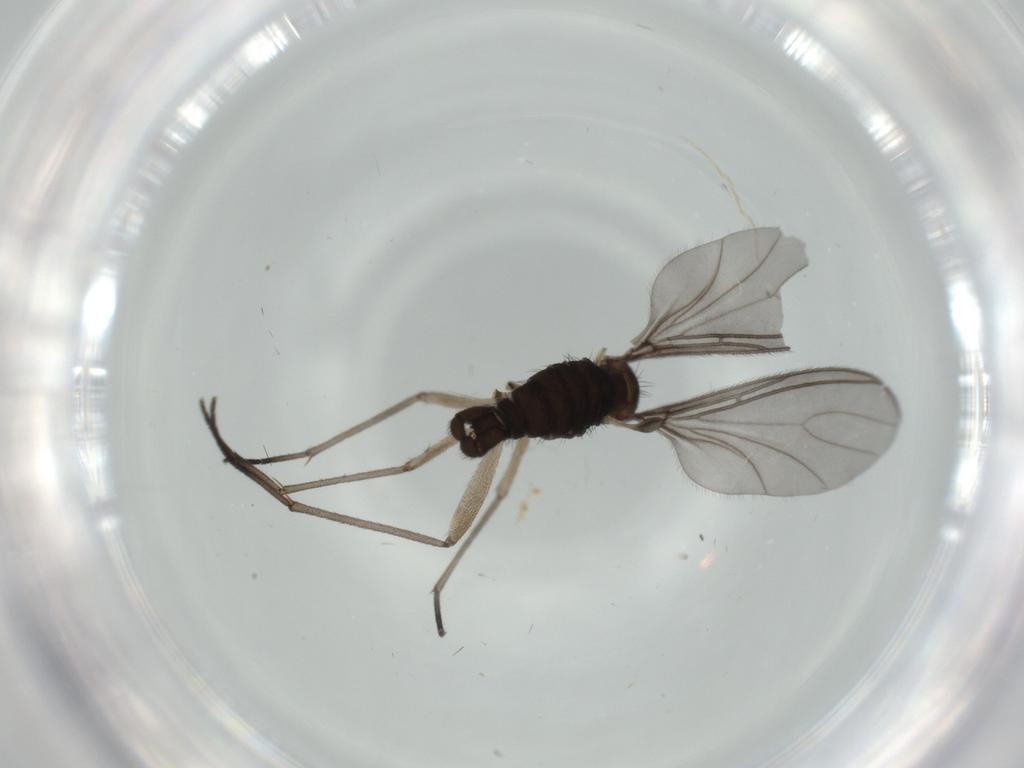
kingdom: Animalia
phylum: Arthropoda
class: Insecta
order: Diptera
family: Sciaridae
